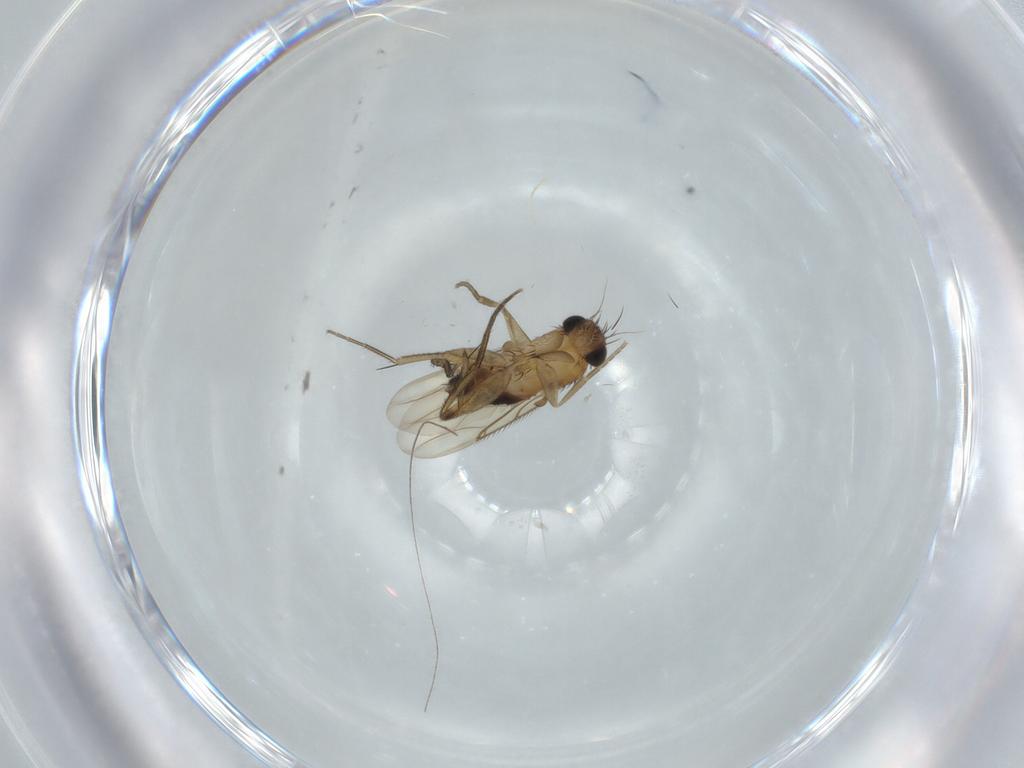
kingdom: Animalia
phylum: Arthropoda
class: Insecta
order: Diptera
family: Phoridae
